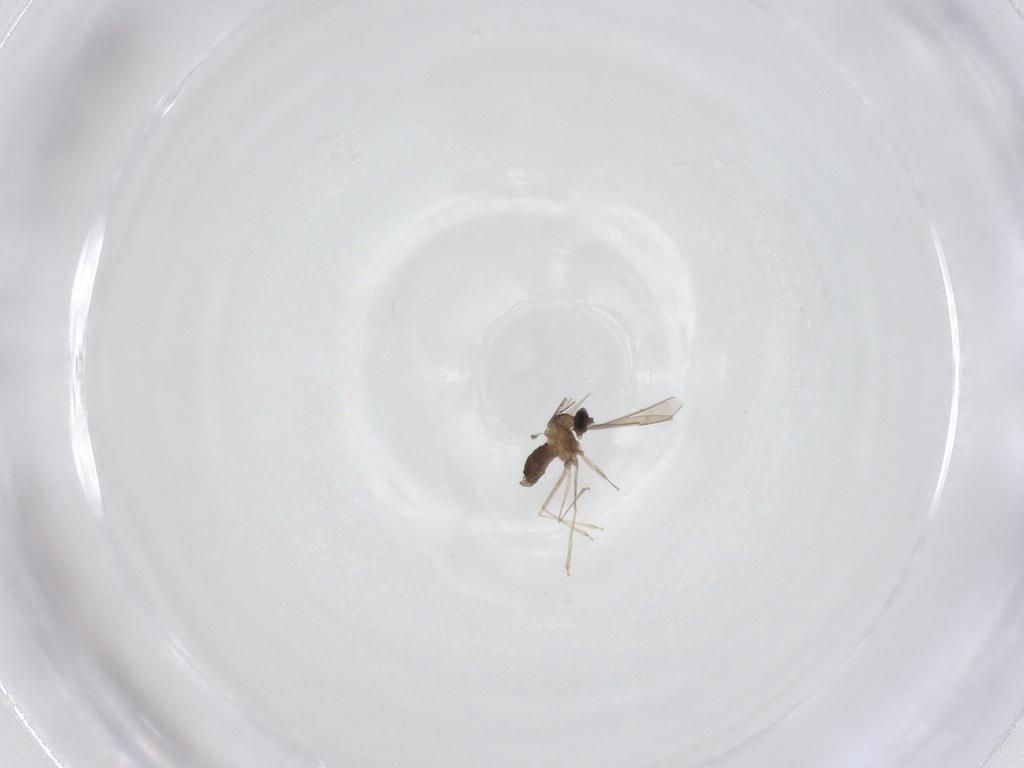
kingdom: Animalia
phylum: Arthropoda
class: Insecta
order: Diptera
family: Cecidomyiidae
